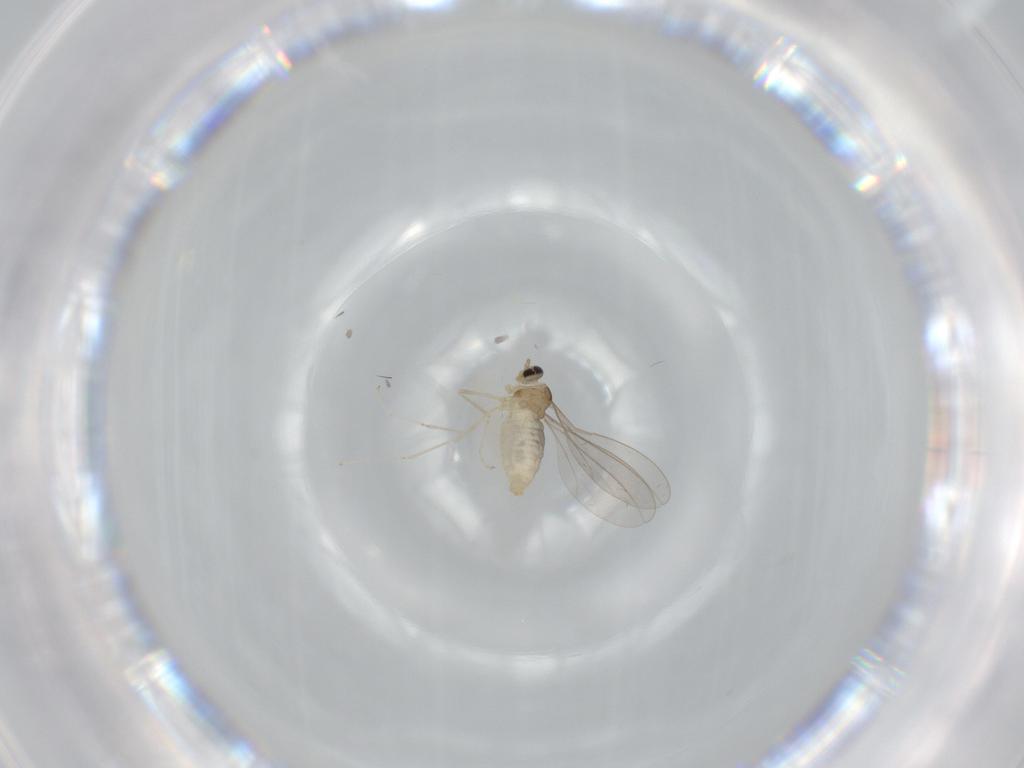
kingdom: Animalia
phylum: Arthropoda
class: Insecta
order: Diptera
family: Cecidomyiidae
